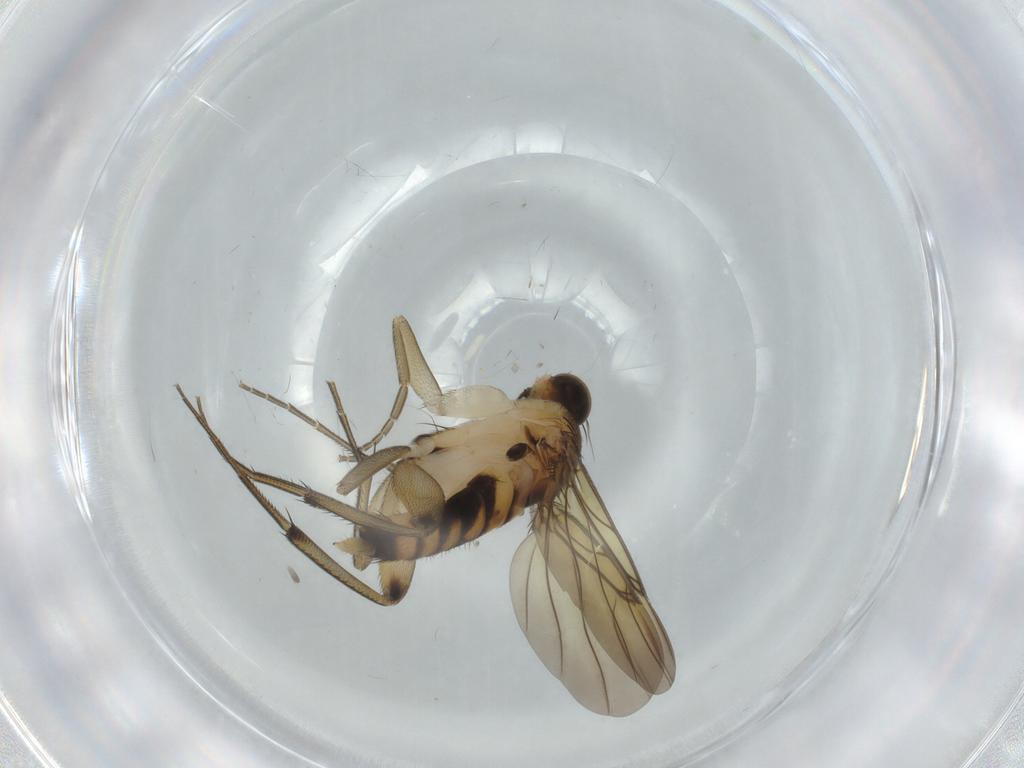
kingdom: Animalia
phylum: Arthropoda
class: Insecta
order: Diptera
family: Phoridae
